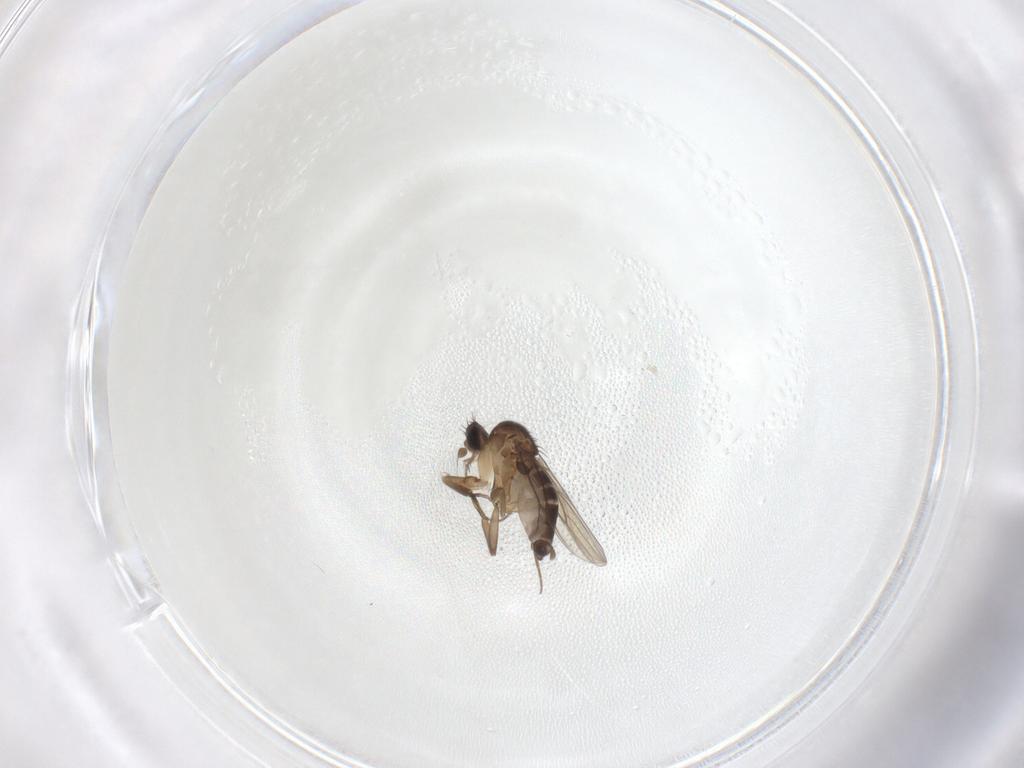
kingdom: Animalia
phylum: Arthropoda
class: Insecta
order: Diptera
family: Phoridae
